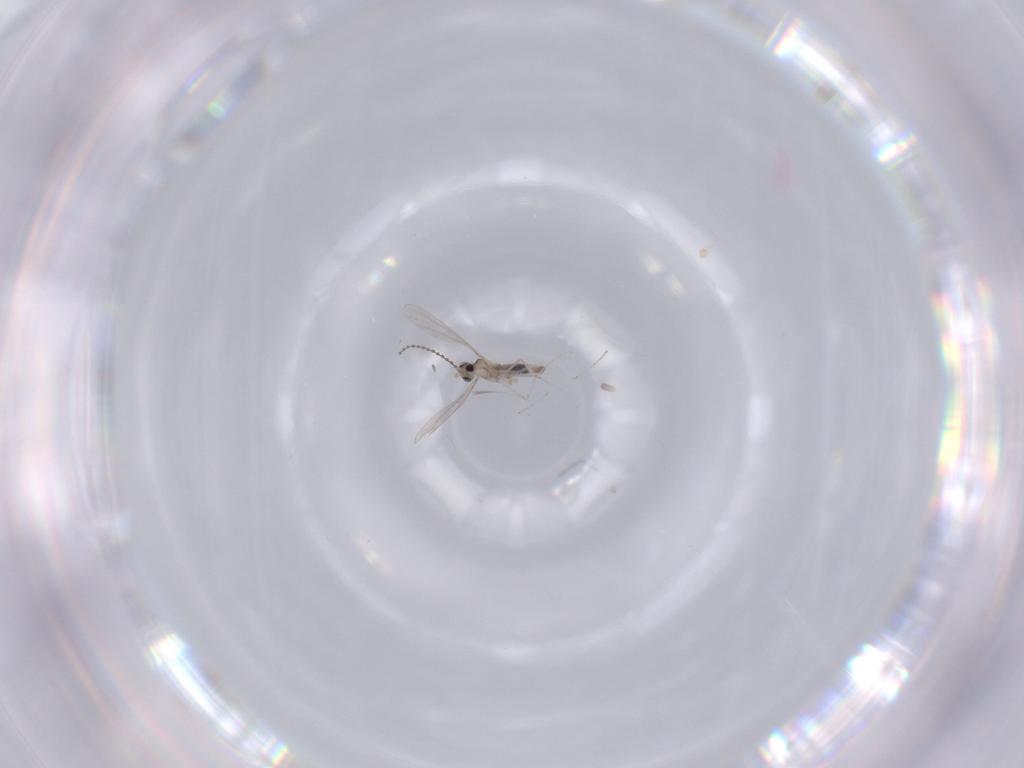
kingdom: Animalia
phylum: Arthropoda
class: Insecta
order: Diptera
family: Cecidomyiidae
